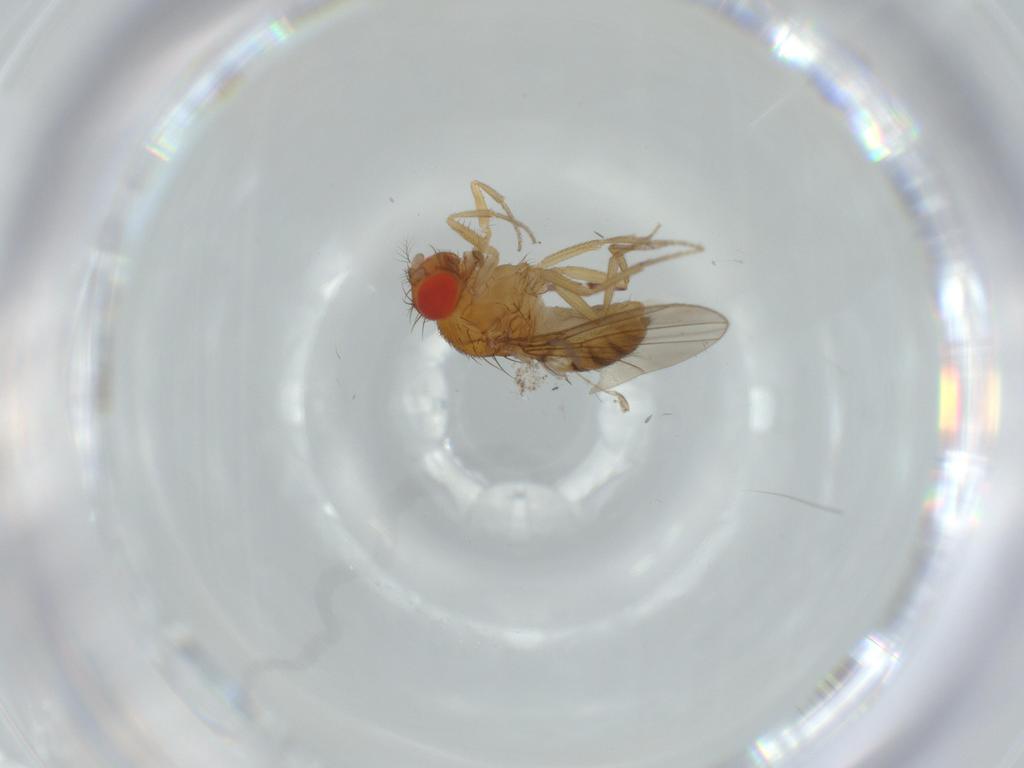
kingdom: Animalia
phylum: Arthropoda
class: Insecta
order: Diptera
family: Drosophilidae
